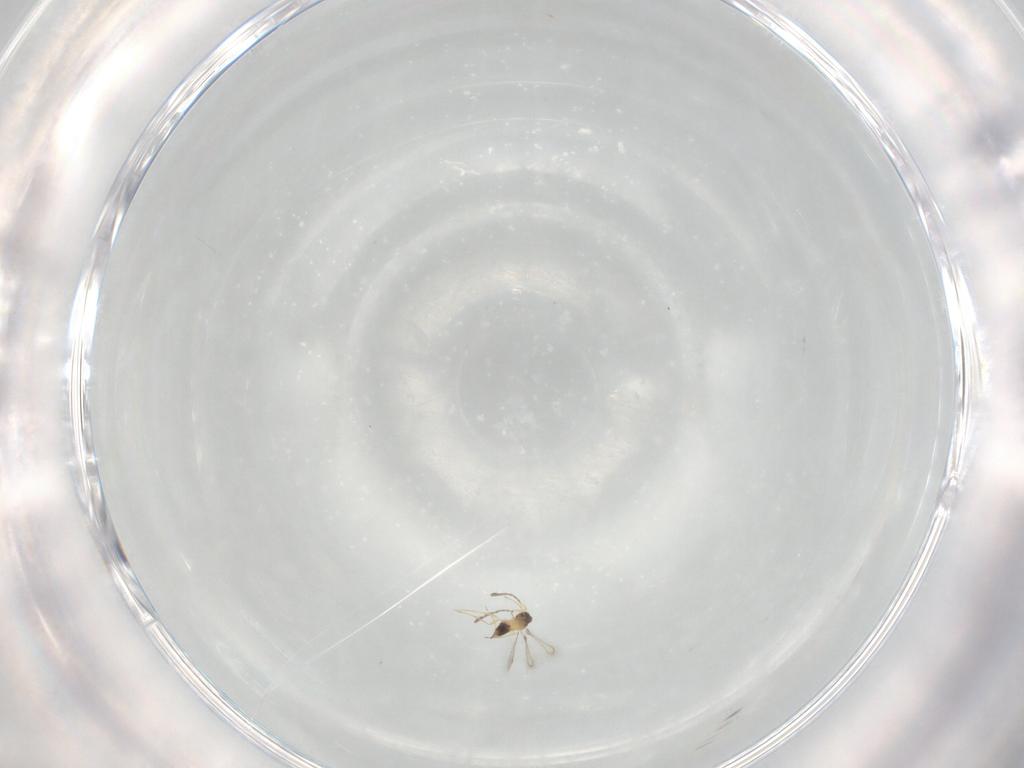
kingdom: Animalia
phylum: Arthropoda
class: Insecta
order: Hymenoptera
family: Mymaridae
